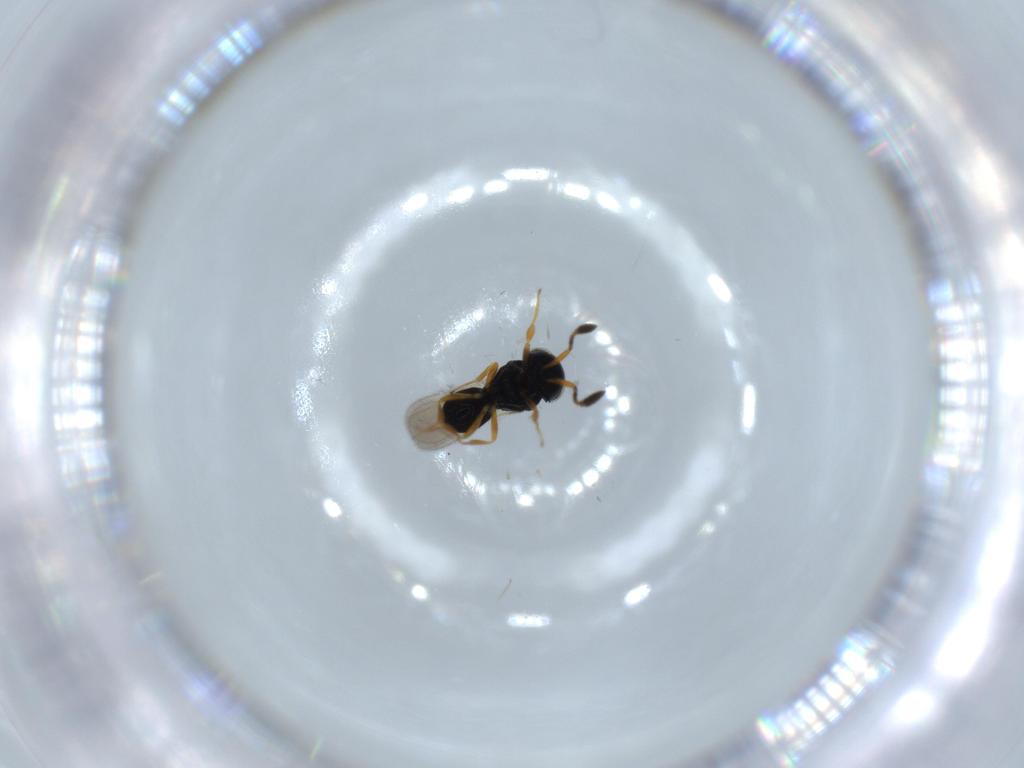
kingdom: Animalia
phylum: Arthropoda
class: Insecta
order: Hymenoptera
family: Scelionidae
